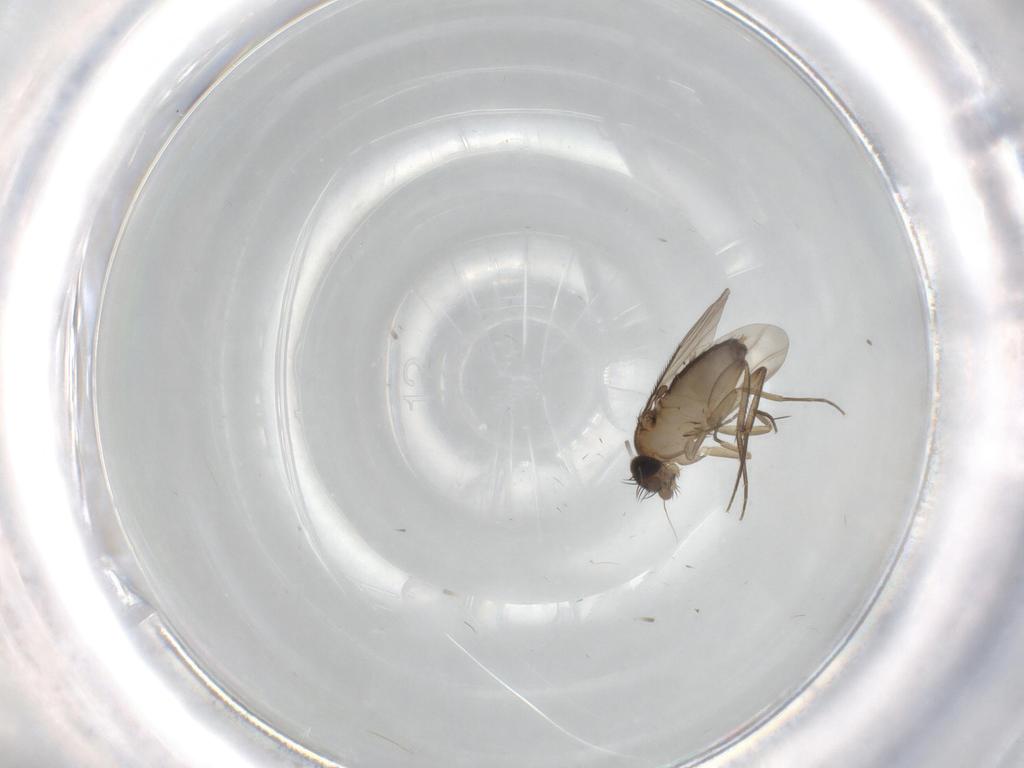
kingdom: Animalia
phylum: Arthropoda
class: Insecta
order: Diptera
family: Phoridae
